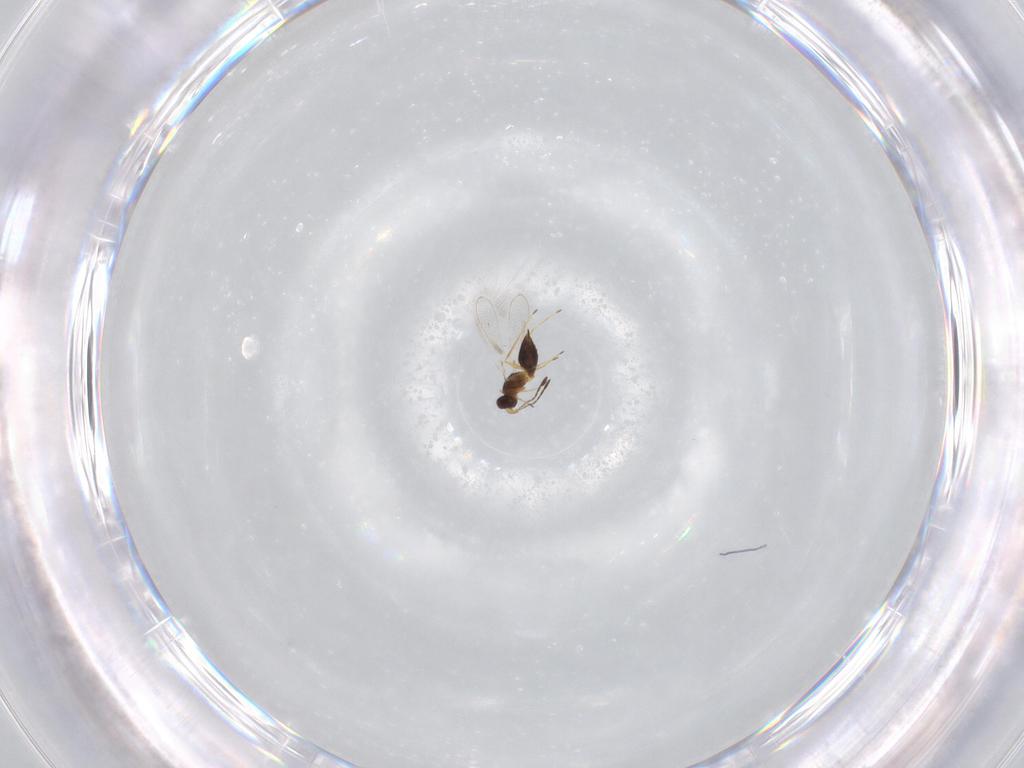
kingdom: Animalia
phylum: Arthropoda
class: Insecta
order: Hymenoptera
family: Mymaridae
